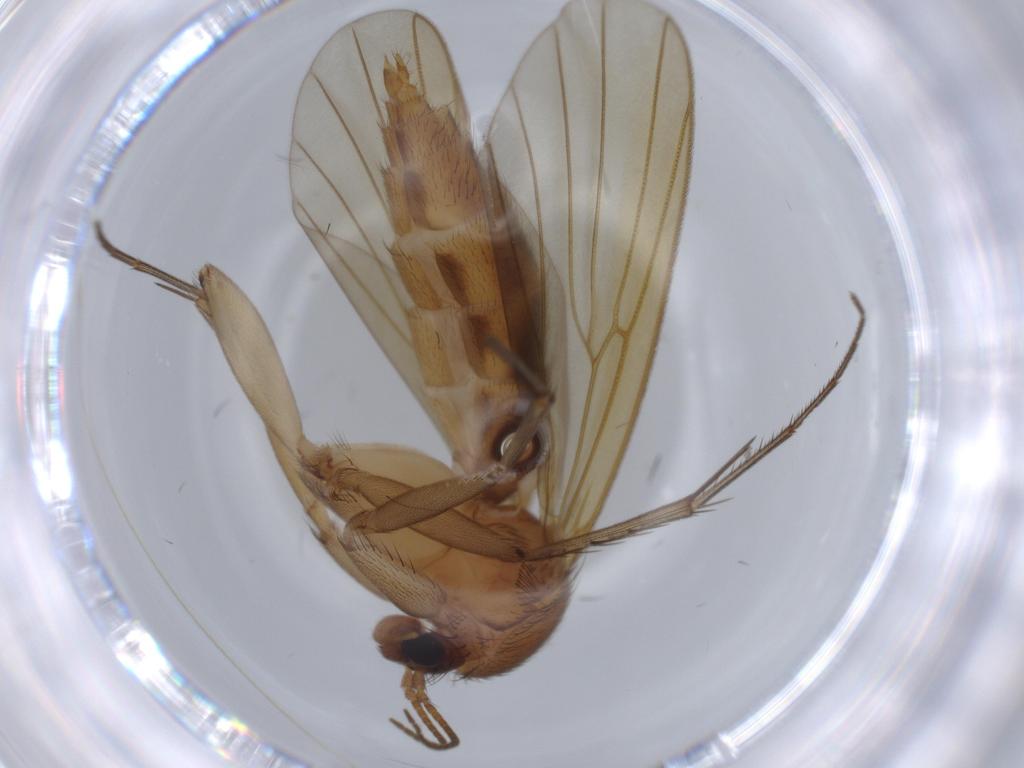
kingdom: Animalia
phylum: Arthropoda
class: Insecta
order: Diptera
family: Mycetophilidae
